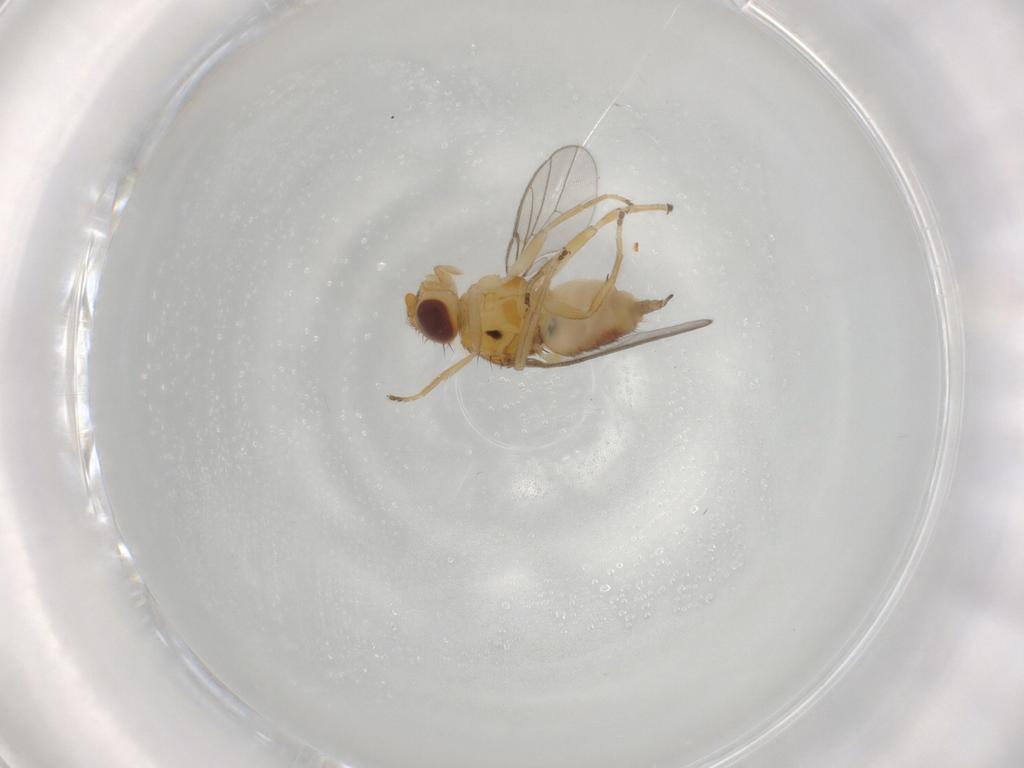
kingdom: Animalia
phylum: Arthropoda
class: Insecta
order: Diptera
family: Chloropidae
